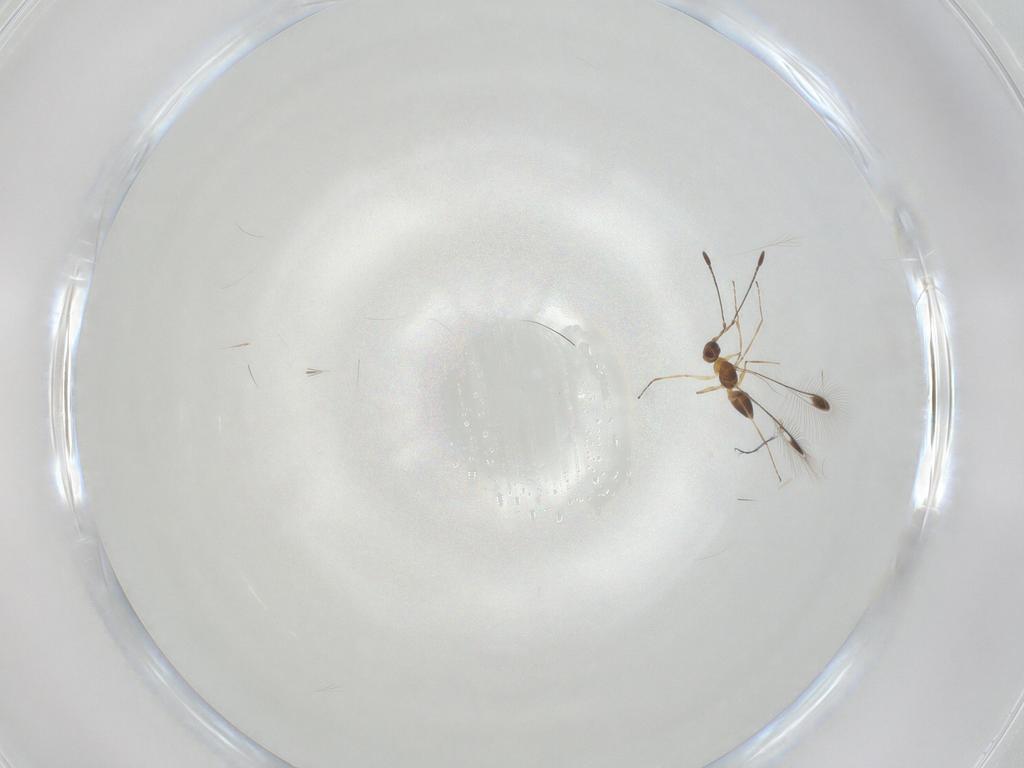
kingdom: Animalia
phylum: Arthropoda
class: Insecta
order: Hymenoptera
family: Mymaridae
